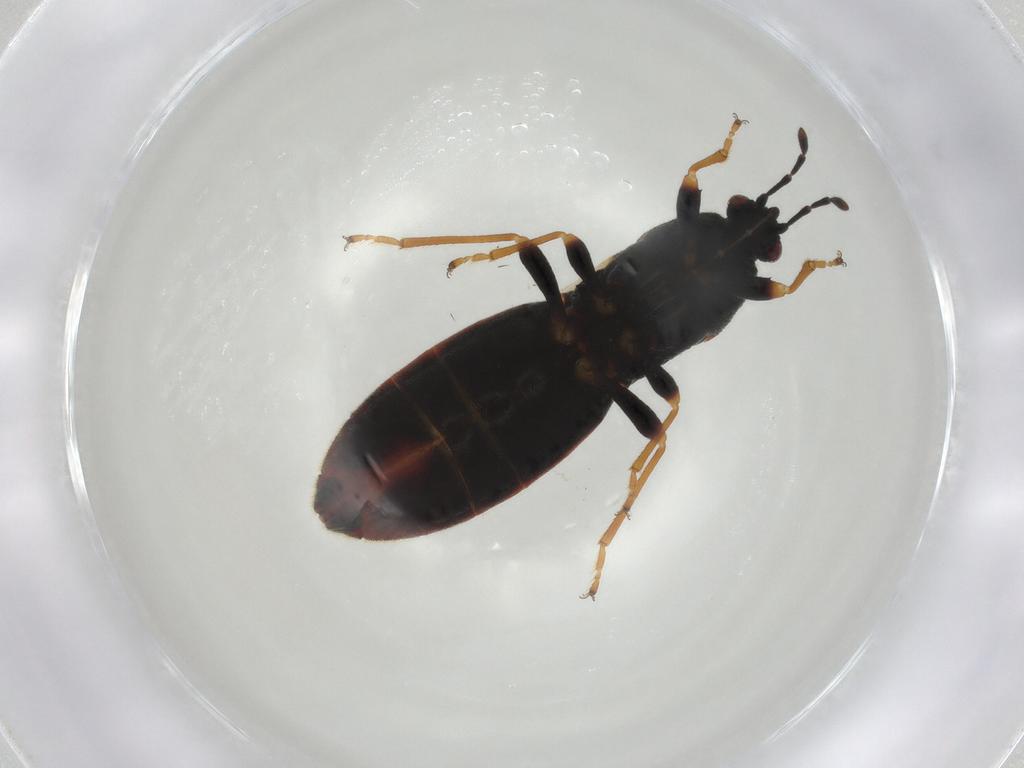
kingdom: Animalia
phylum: Arthropoda
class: Insecta
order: Hemiptera
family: Blissidae
